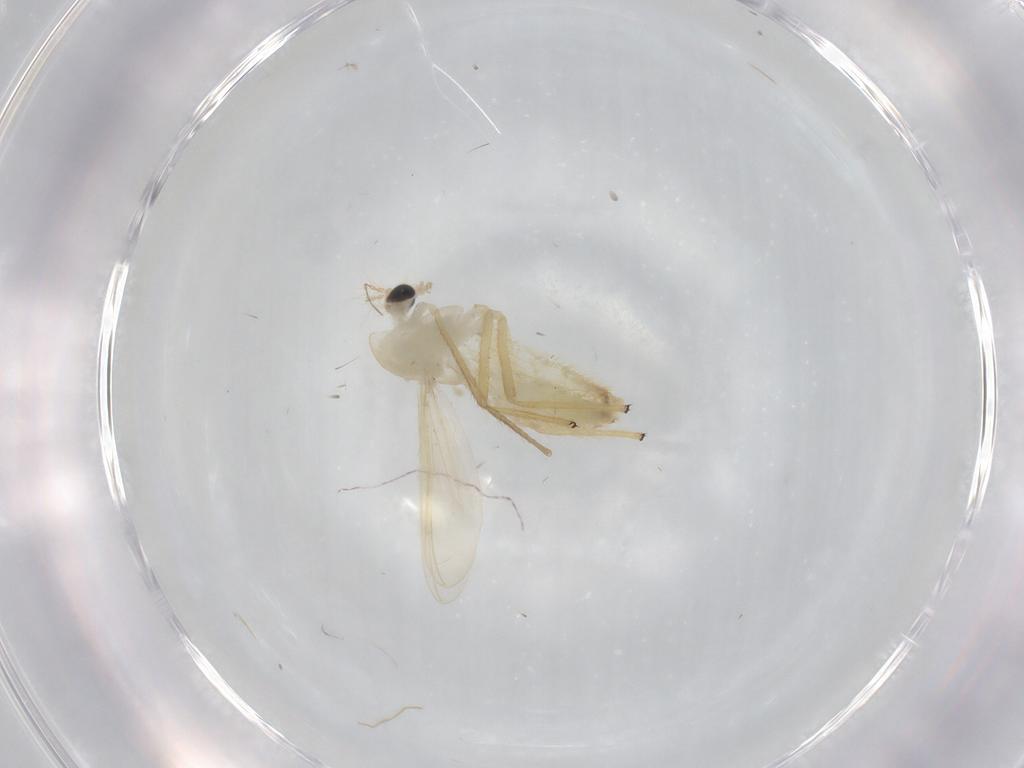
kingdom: Animalia
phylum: Arthropoda
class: Insecta
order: Diptera
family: Chironomidae
